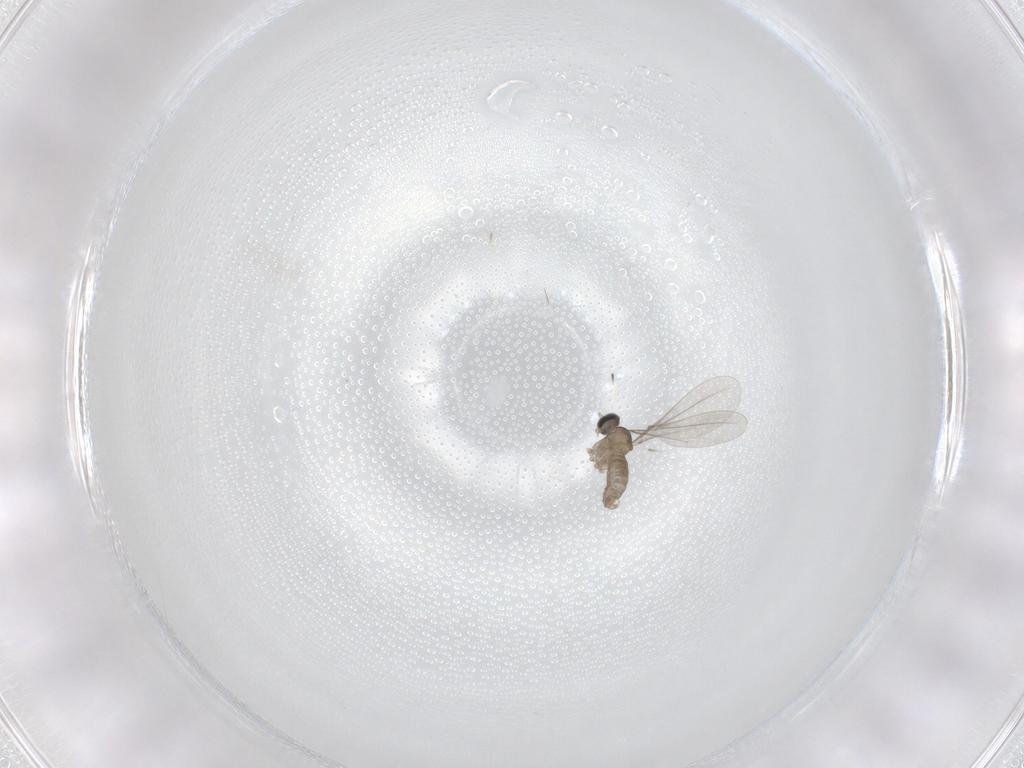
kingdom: Animalia
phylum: Arthropoda
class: Insecta
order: Diptera
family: Cecidomyiidae
